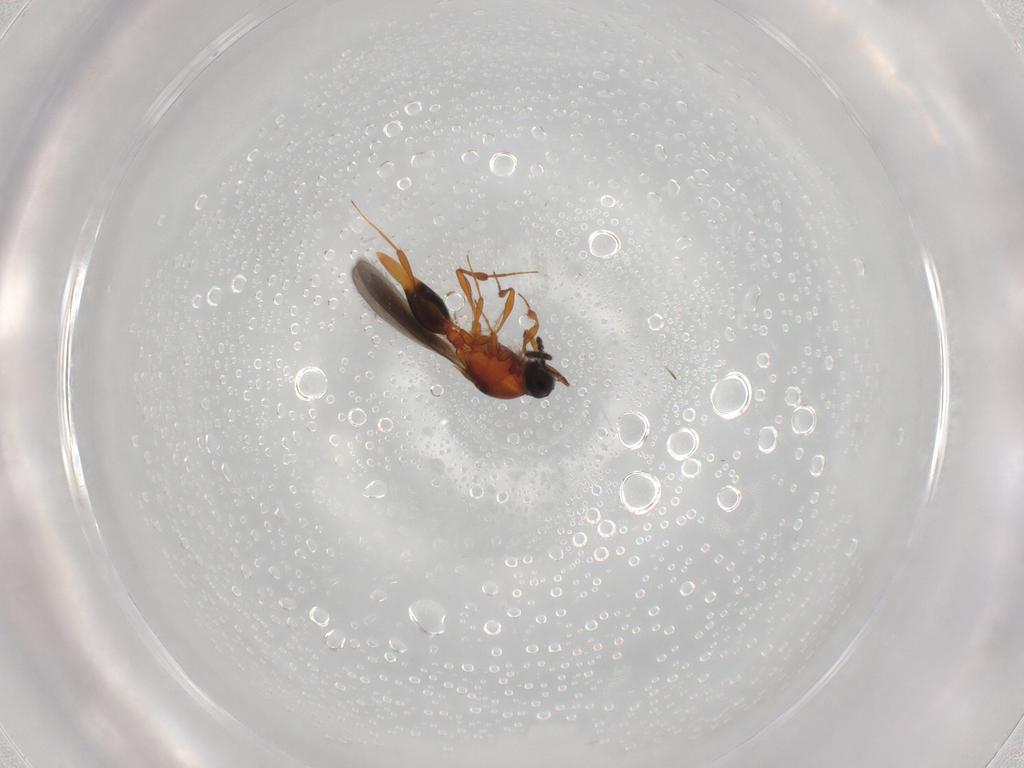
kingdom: Animalia
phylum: Arthropoda
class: Insecta
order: Hymenoptera
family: Platygastridae
